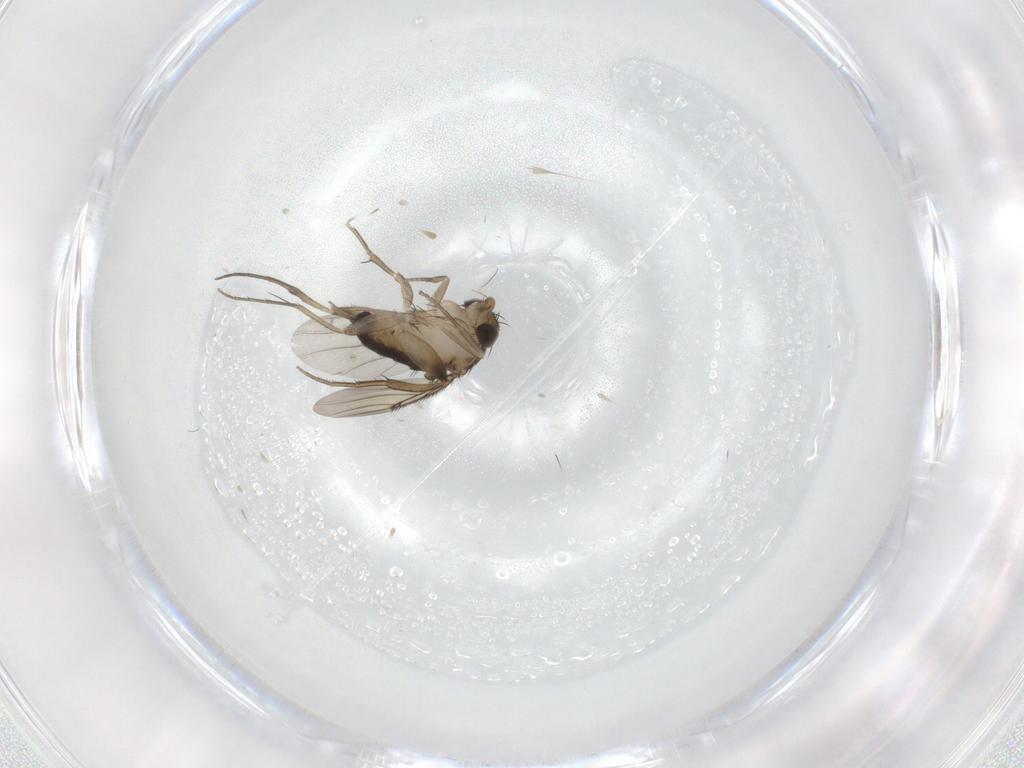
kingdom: Animalia
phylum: Arthropoda
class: Insecta
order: Diptera
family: Phoridae
